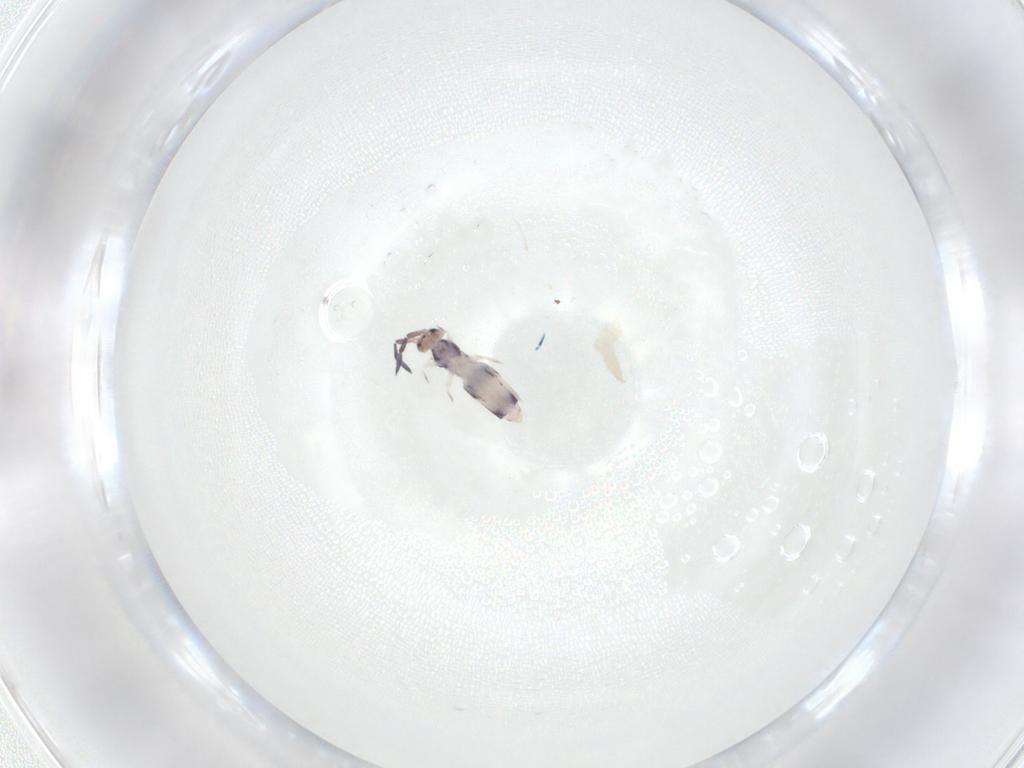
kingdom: Animalia
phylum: Arthropoda
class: Collembola
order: Entomobryomorpha
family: Entomobryidae
